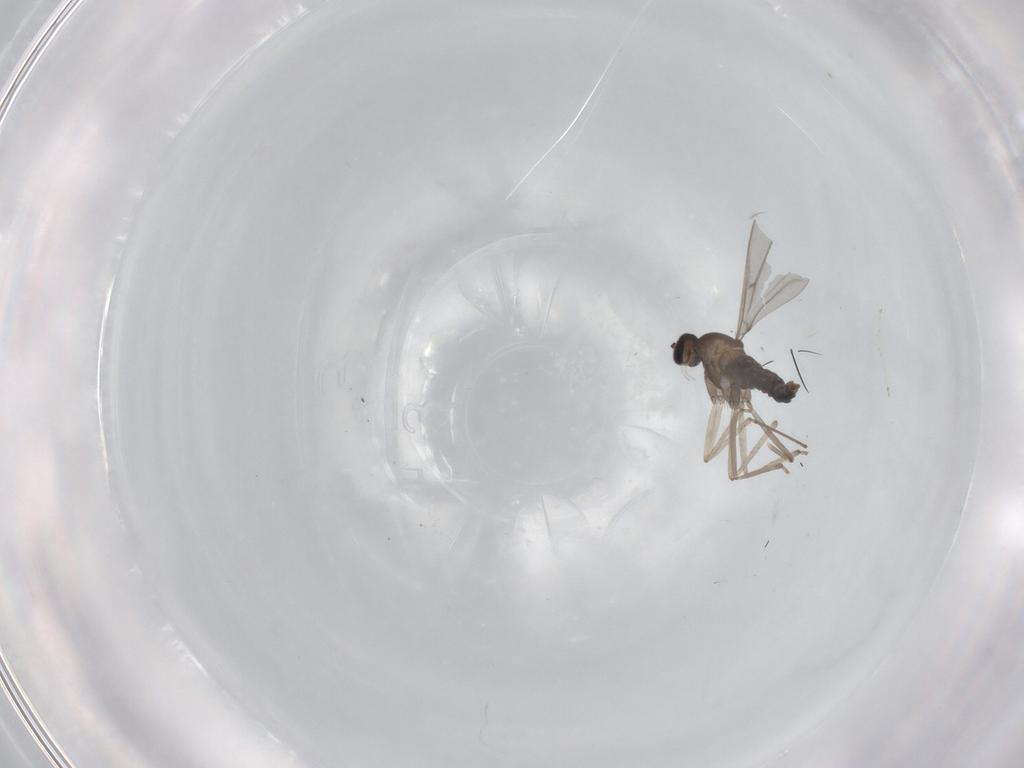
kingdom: Animalia
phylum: Arthropoda
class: Insecta
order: Diptera
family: Cecidomyiidae
